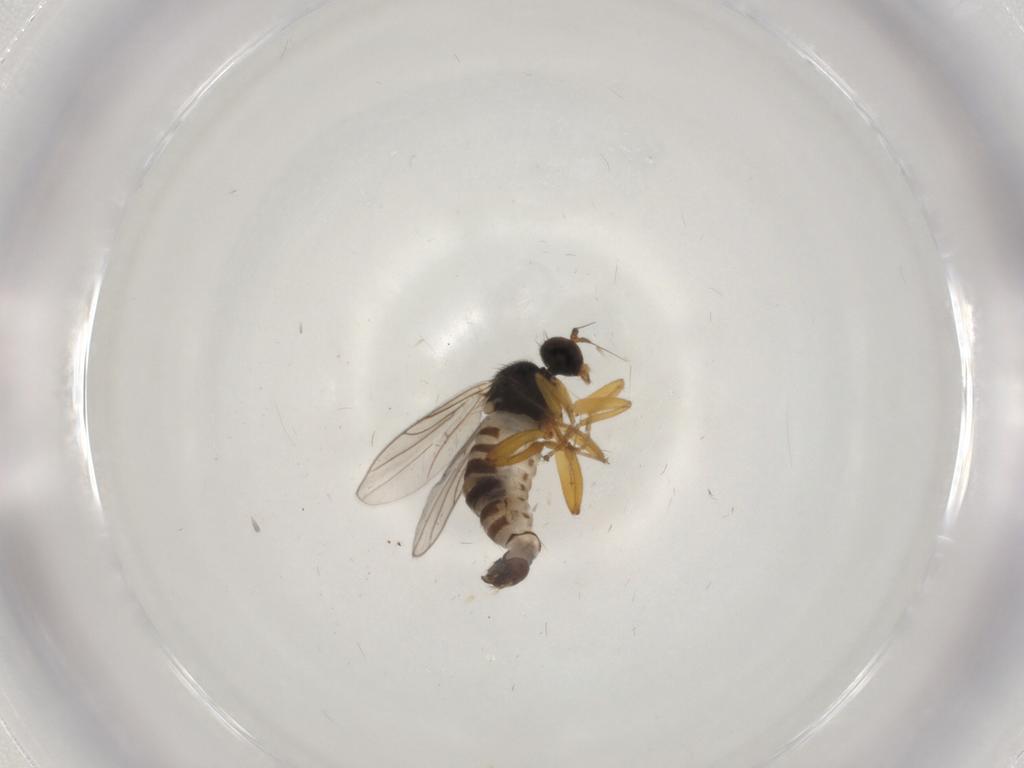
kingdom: Animalia
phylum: Arthropoda
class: Insecta
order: Diptera
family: Hybotidae
